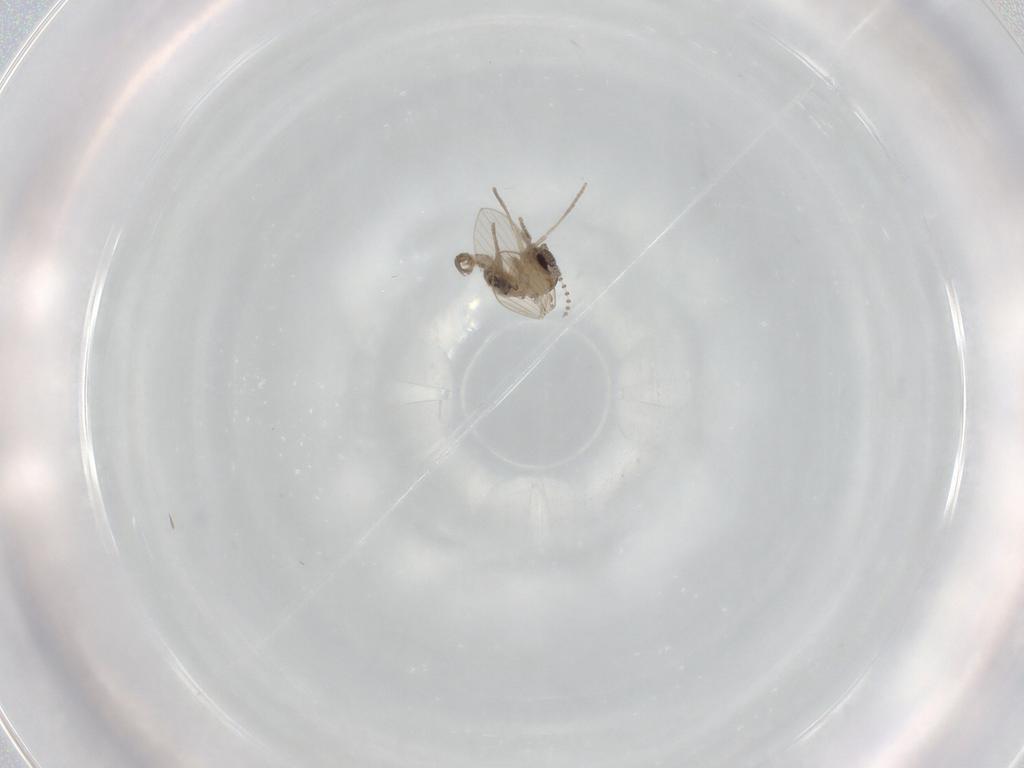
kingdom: Animalia
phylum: Arthropoda
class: Insecta
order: Diptera
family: Psychodidae
